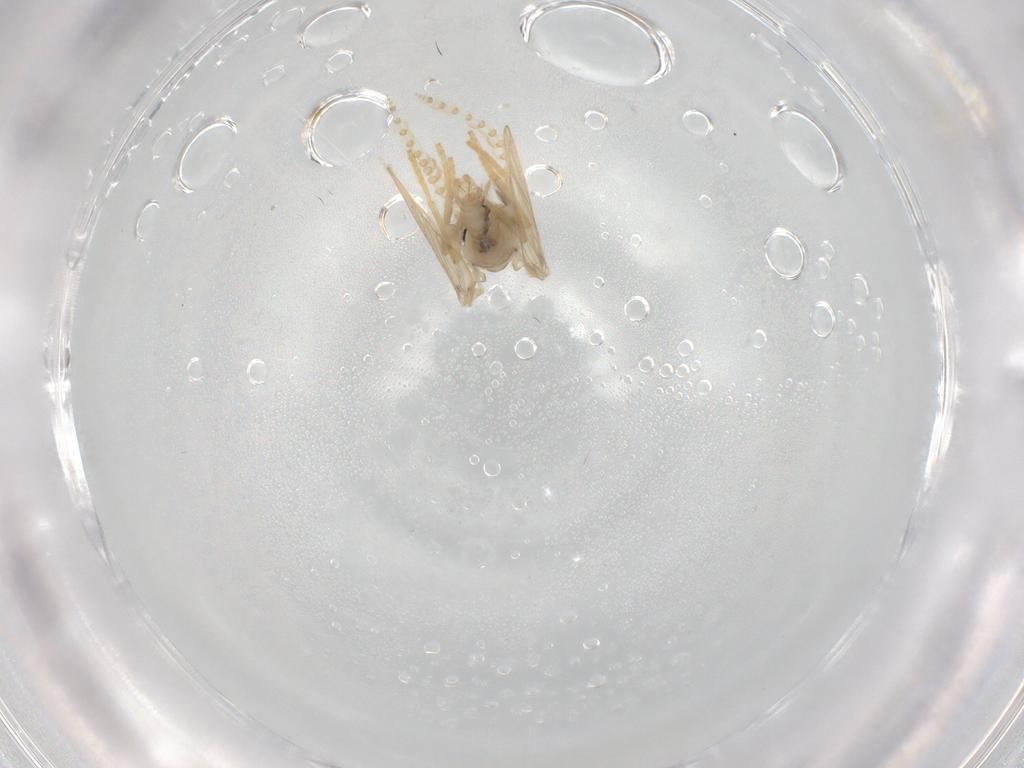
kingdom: Animalia
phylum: Arthropoda
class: Insecta
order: Diptera
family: Psychodidae
